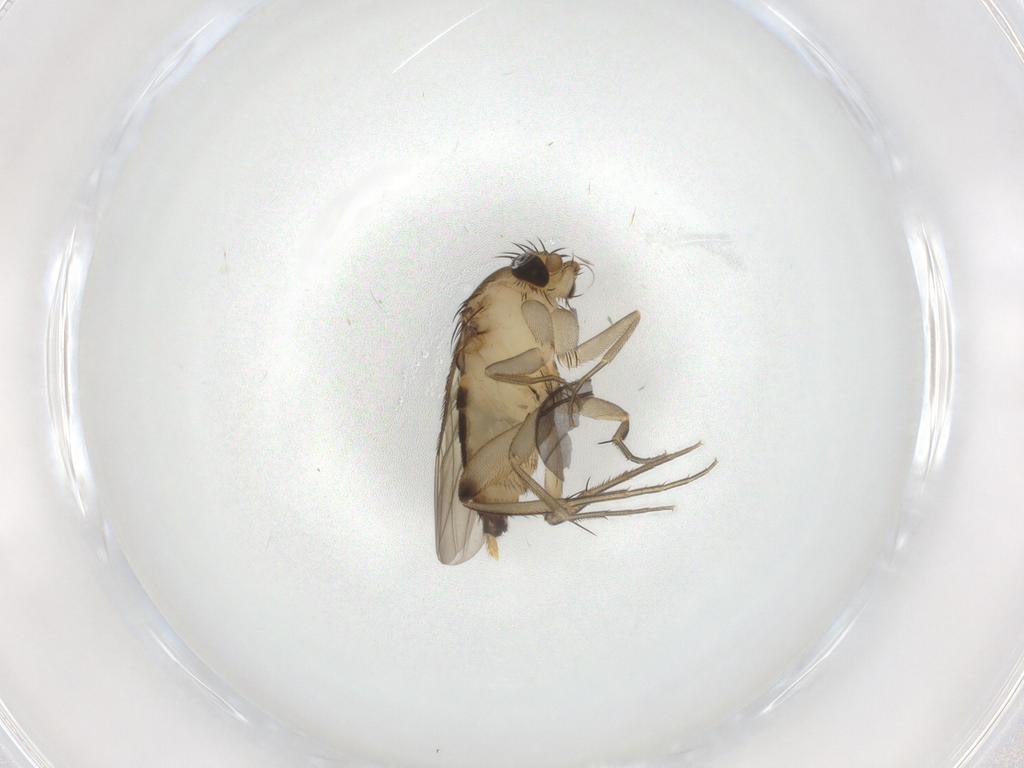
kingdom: Animalia
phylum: Arthropoda
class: Insecta
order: Diptera
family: Phoridae
